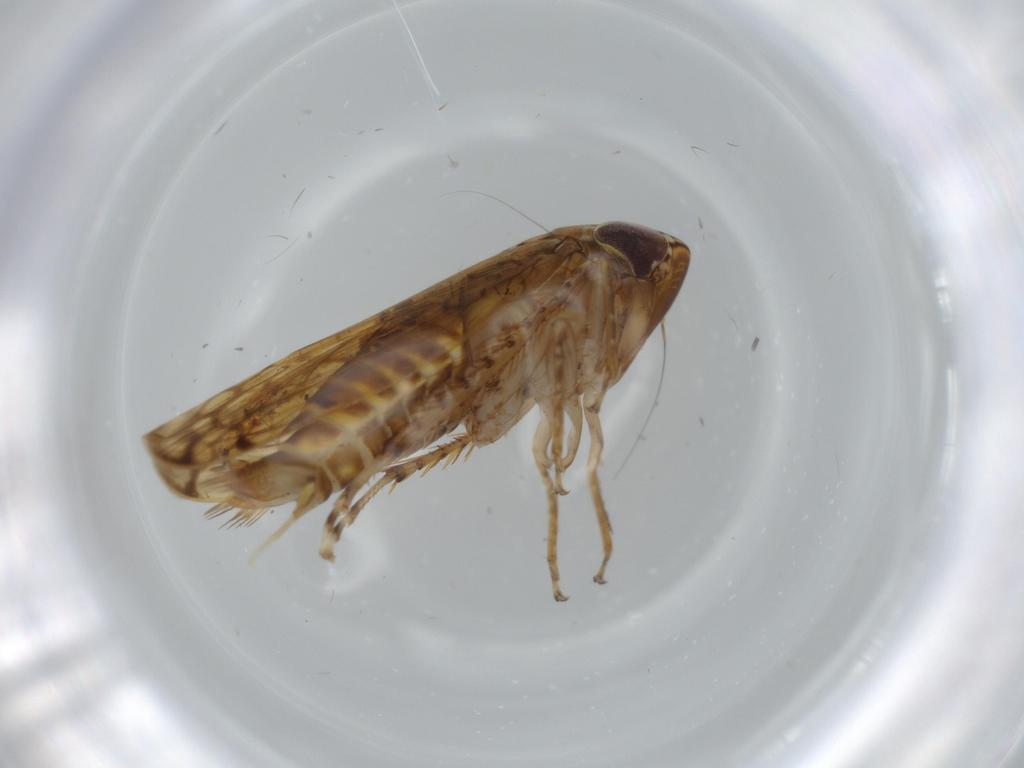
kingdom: Animalia
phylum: Arthropoda
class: Insecta
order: Hemiptera
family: Cicadellidae
